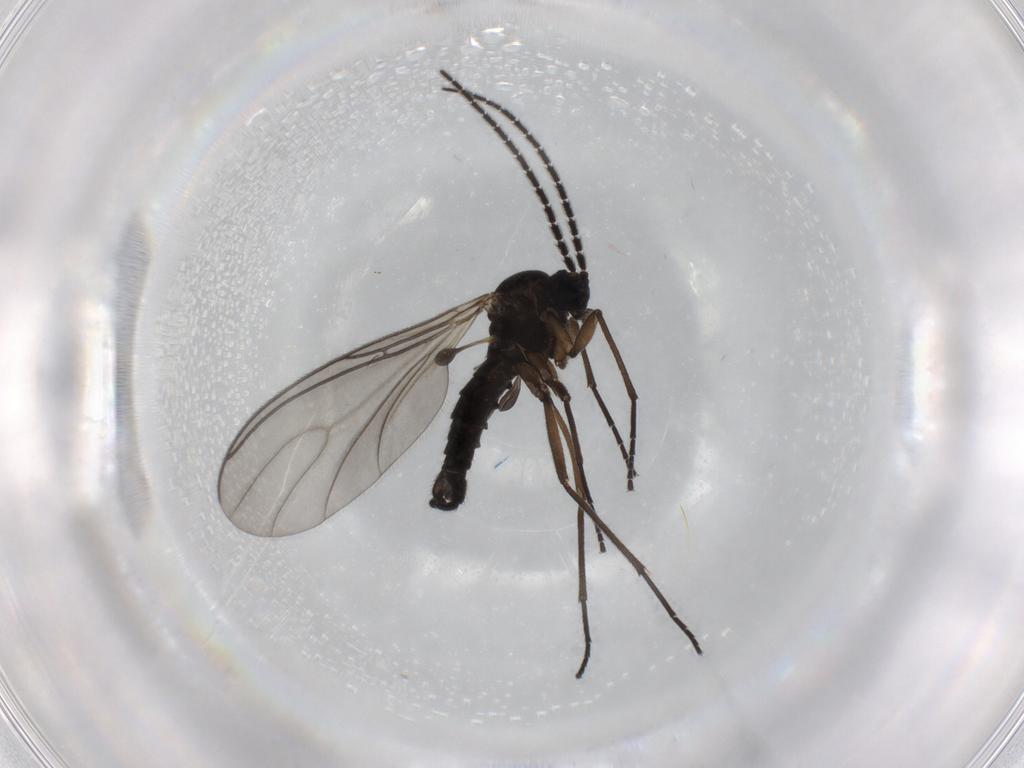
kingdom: Animalia
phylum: Arthropoda
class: Insecta
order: Diptera
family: Sciaridae
